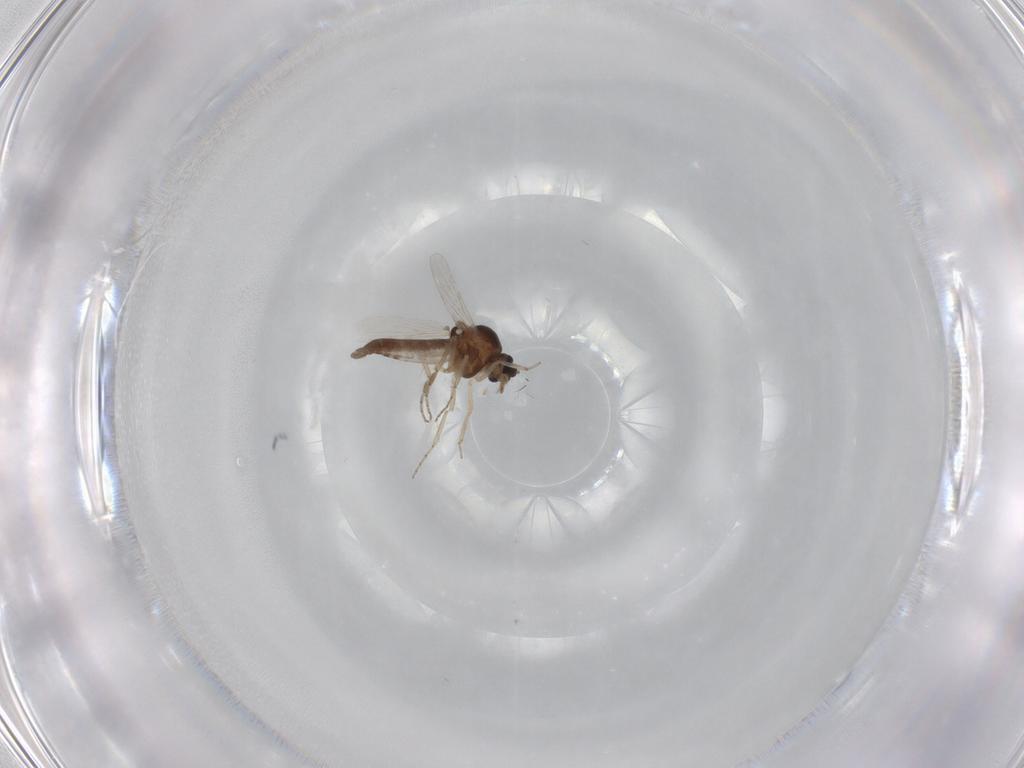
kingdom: Animalia
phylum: Arthropoda
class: Insecta
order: Diptera
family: Ceratopogonidae
